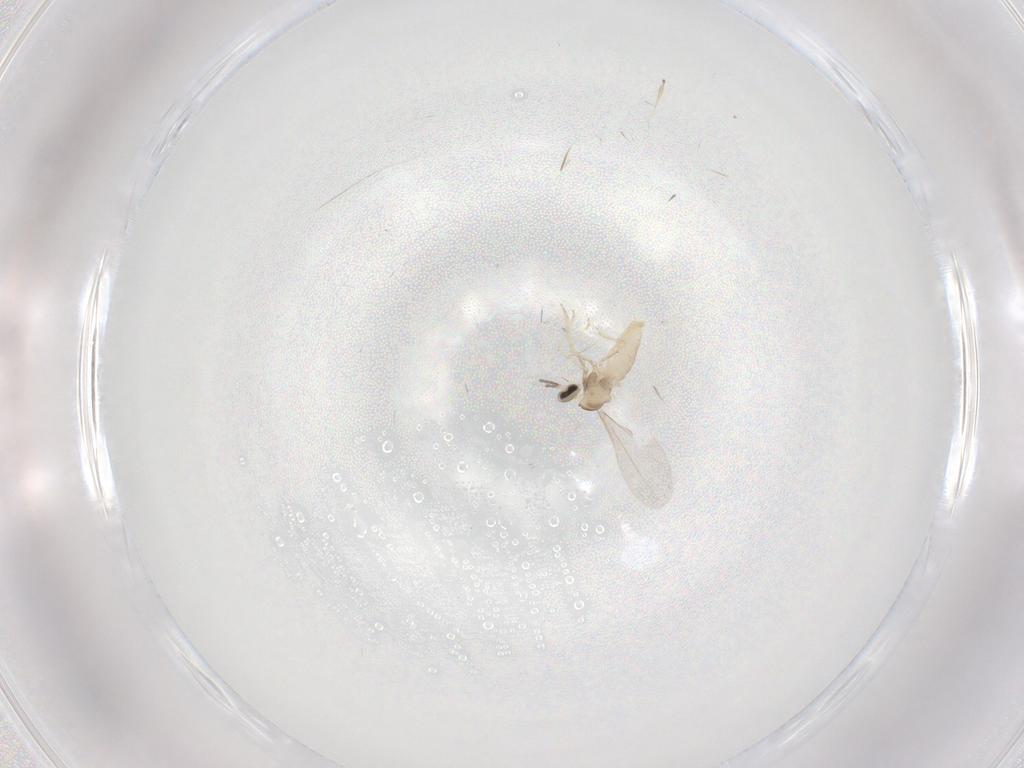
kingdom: Animalia
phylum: Arthropoda
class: Insecta
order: Diptera
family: Cecidomyiidae
